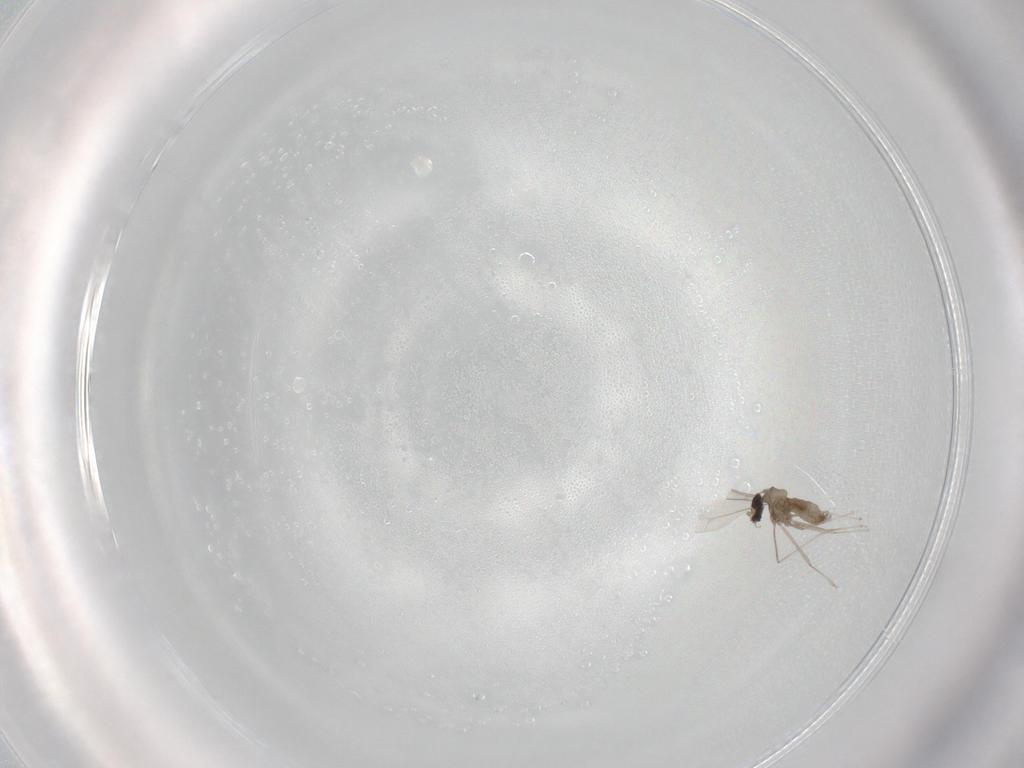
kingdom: Animalia
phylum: Arthropoda
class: Insecta
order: Diptera
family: Cecidomyiidae
